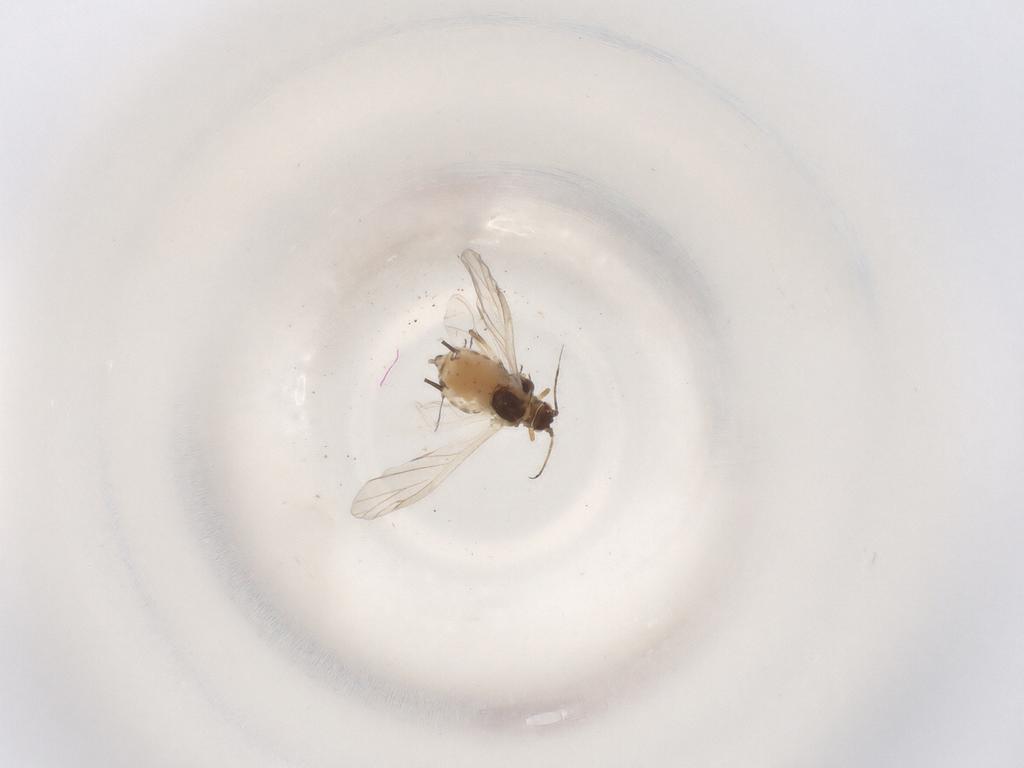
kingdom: Animalia
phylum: Arthropoda
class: Insecta
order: Hemiptera
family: Aphididae
